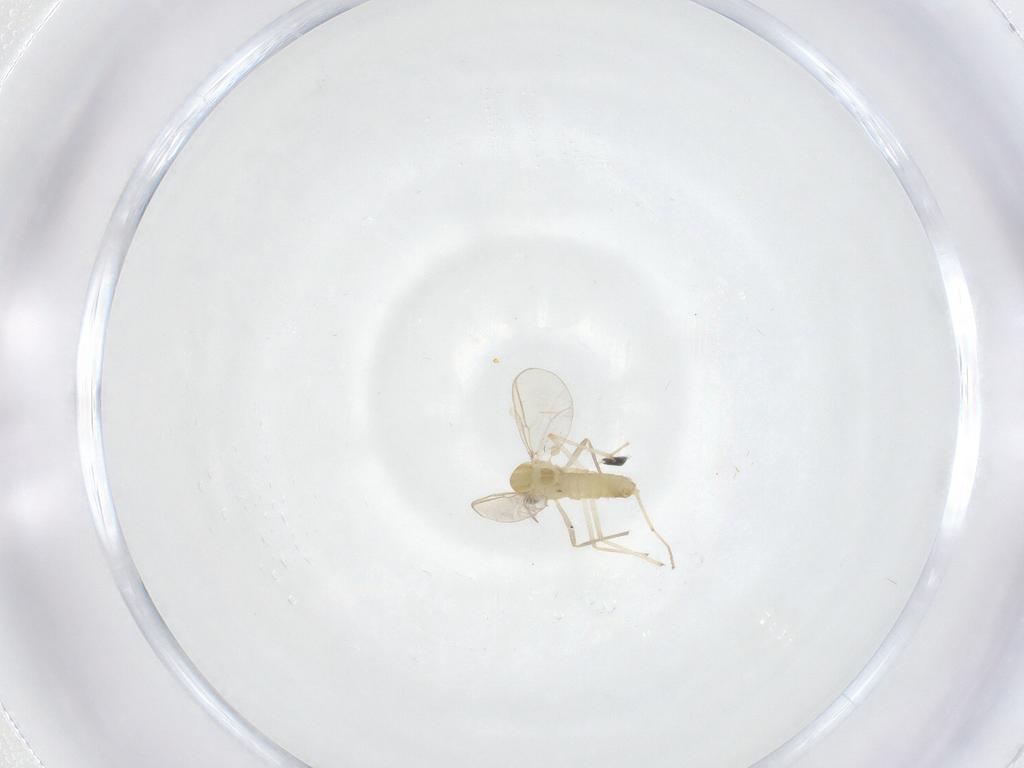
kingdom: Animalia
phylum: Arthropoda
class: Insecta
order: Diptera
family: Chironomidae
